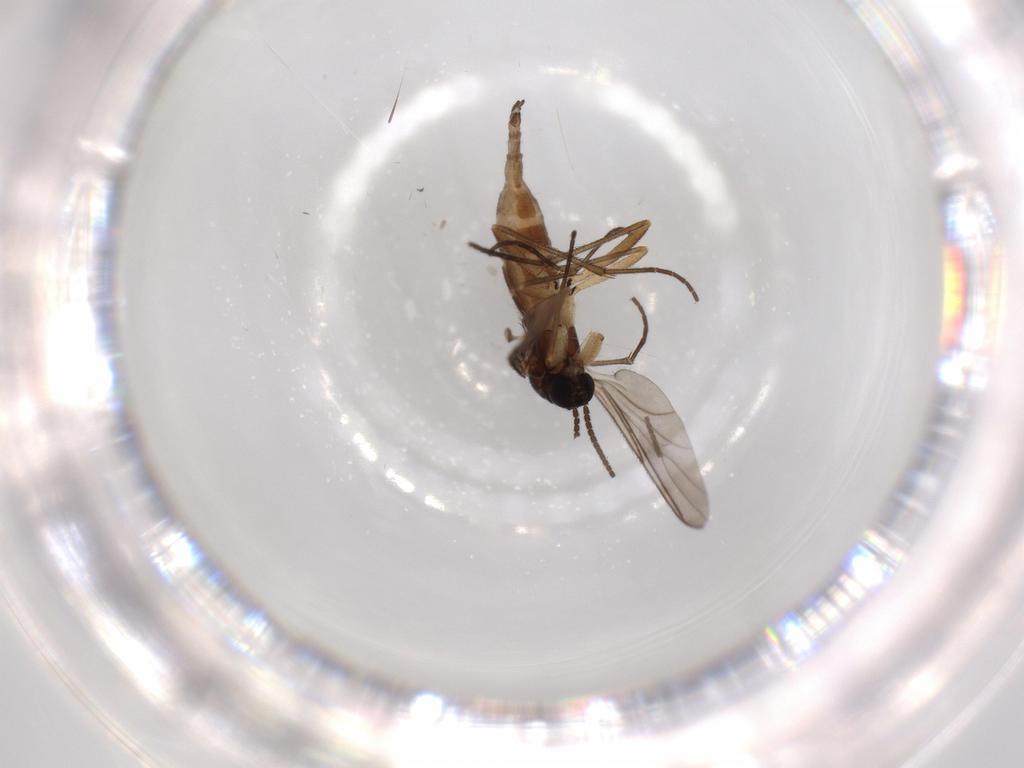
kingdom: Animalia
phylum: Arthropoda
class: Insecta
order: Diptera
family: Sciaridae
